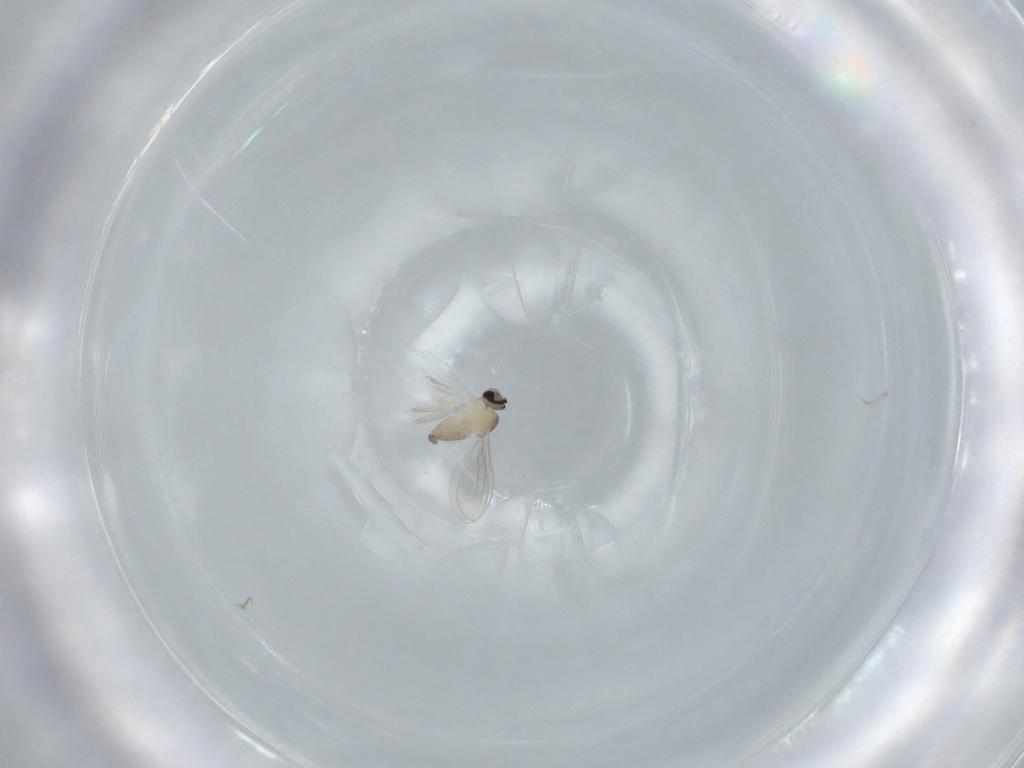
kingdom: Animalia
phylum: Arthropoda
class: Insecta
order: Diptera
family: Cecidomyiidae
